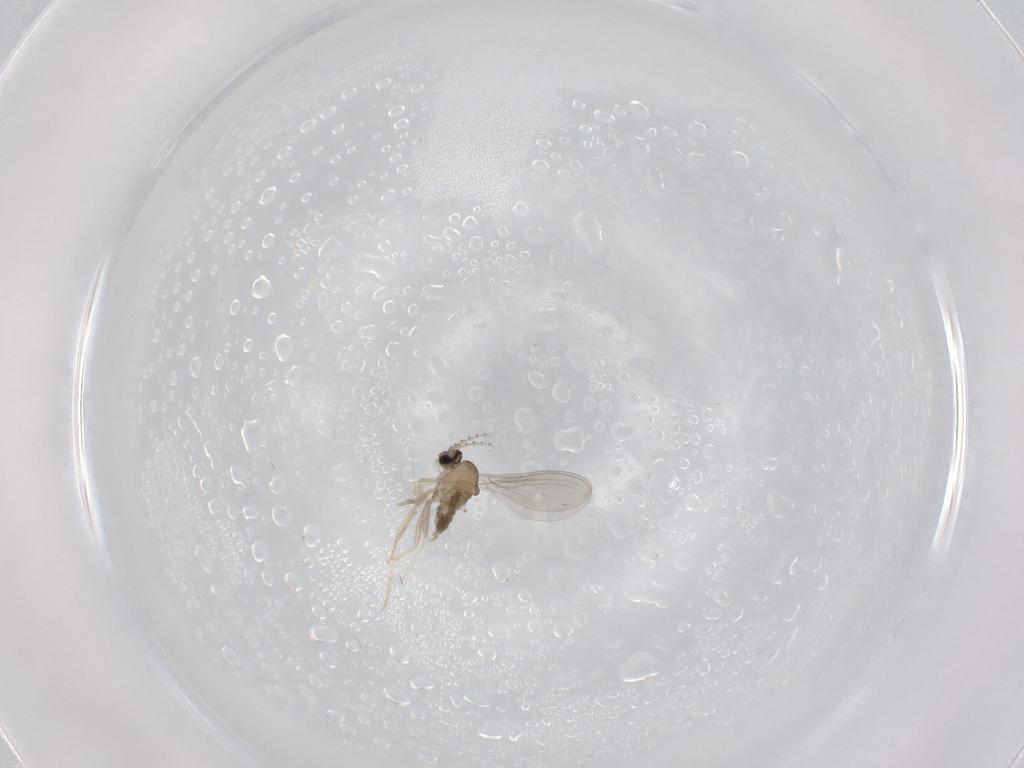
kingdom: Animalia
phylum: Arthropoda
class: Insecta
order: Diptera
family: Cecidomyiidae
